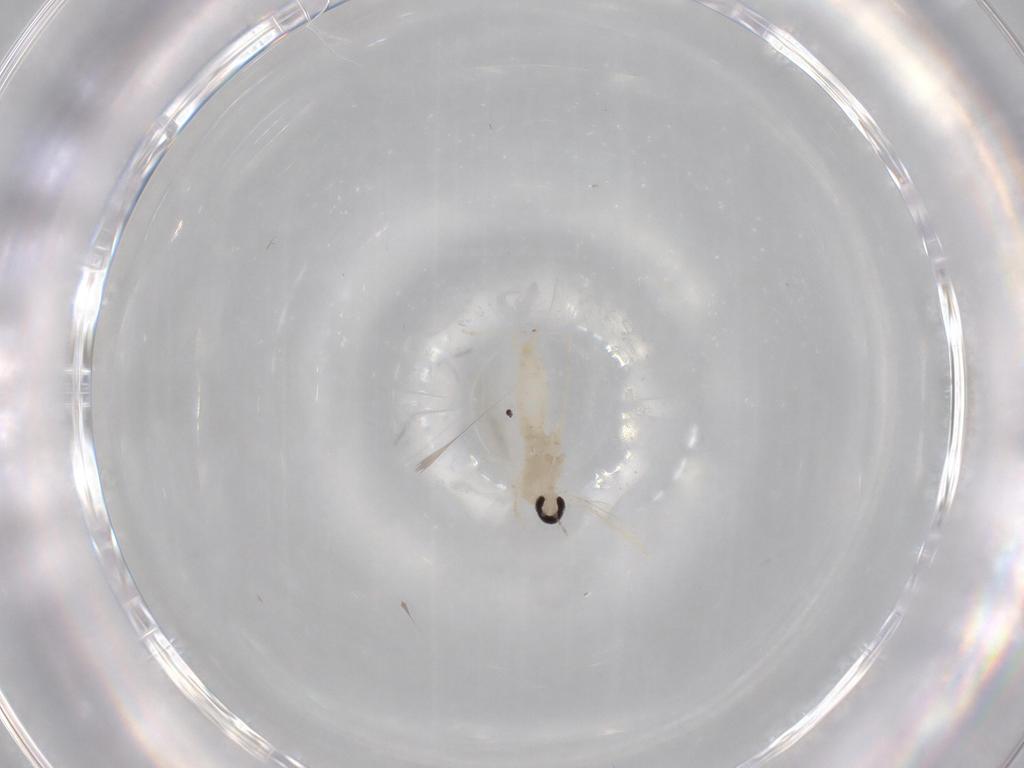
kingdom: Animalia
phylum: Arthropoda
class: Insecta
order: Diptera
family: Cecidomyiidae
